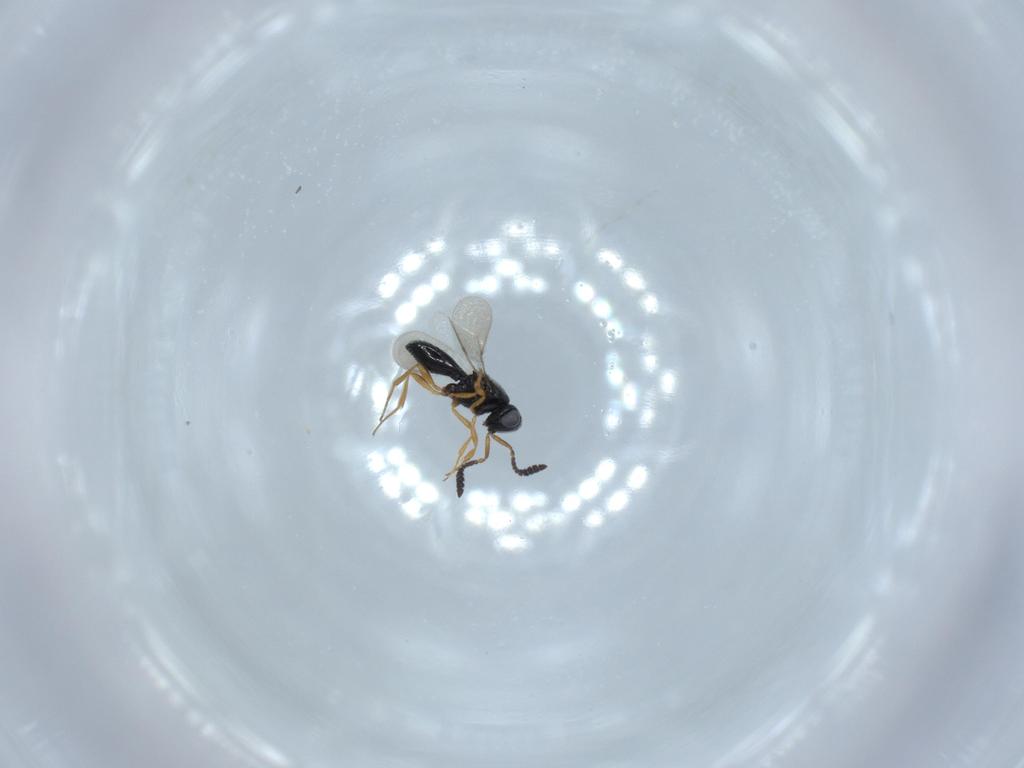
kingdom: Animalia
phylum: Arthropoda
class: Insecta
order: Hymenoptera
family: Scelionidae
